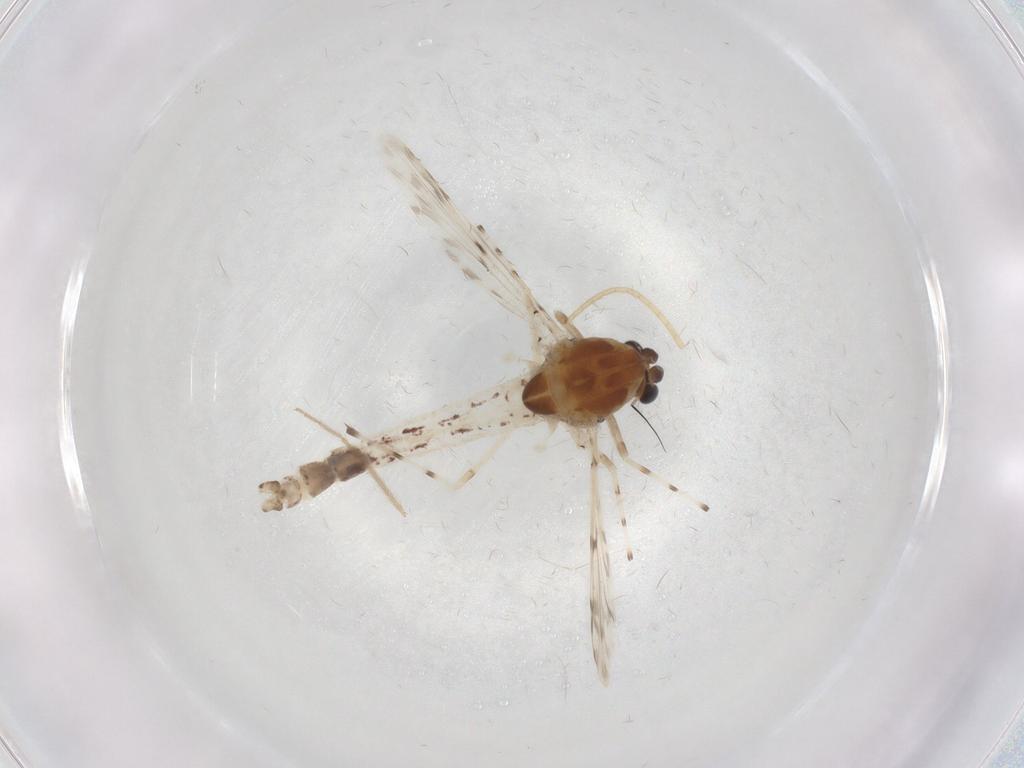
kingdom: Animalia
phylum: Arthropoda
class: Insecta
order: Diptera
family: Chironomidae
